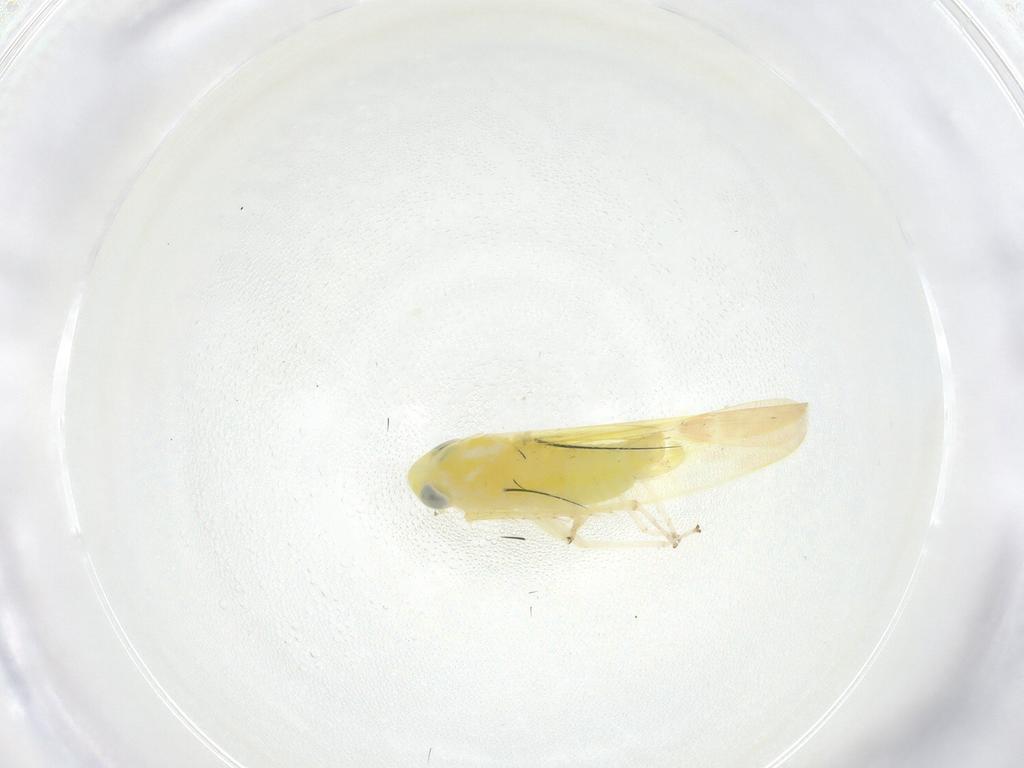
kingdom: Animalia
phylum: Arthropoda
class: Insecta
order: Hemiptera
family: Cicadellidae
